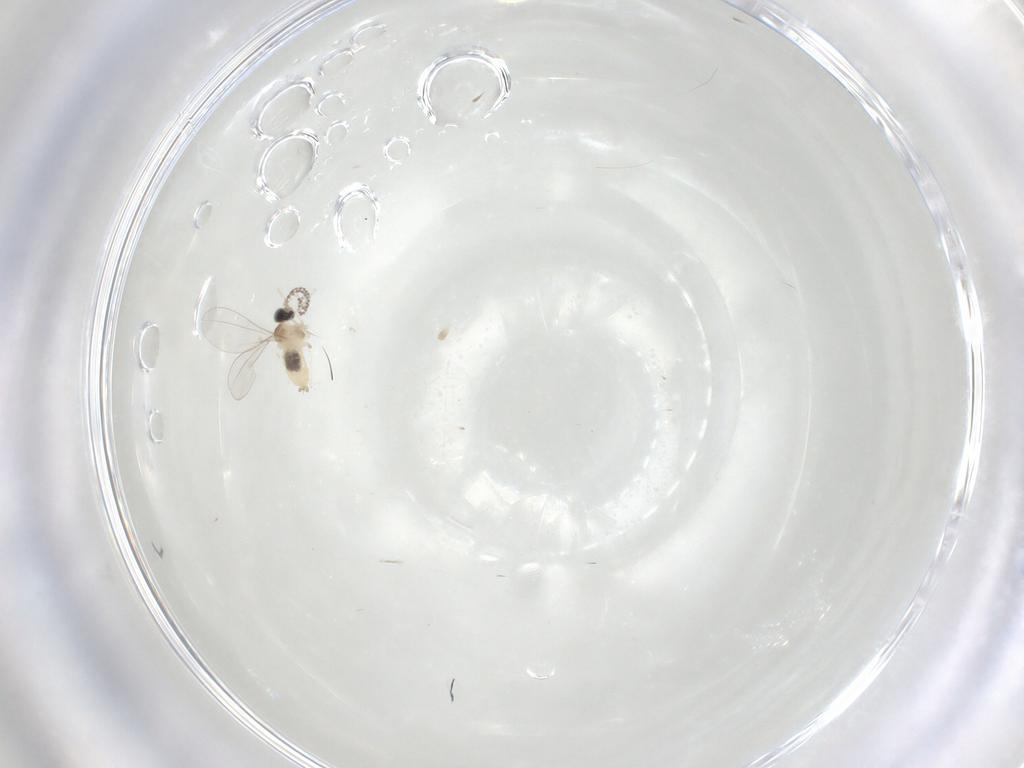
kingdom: Animalia
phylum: Arthropoda
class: Insecta
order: Diptera
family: Cecidomyiidae
